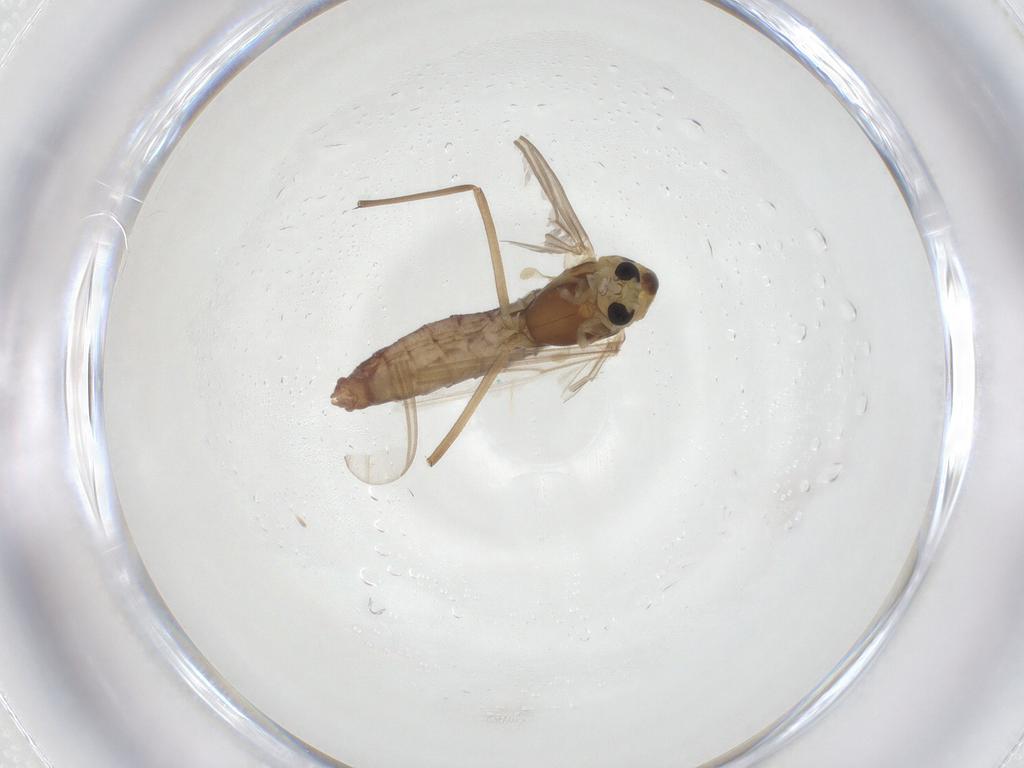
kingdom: Animalia
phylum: Arthropoda
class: Insecta
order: Diptera
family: Chironomidae
